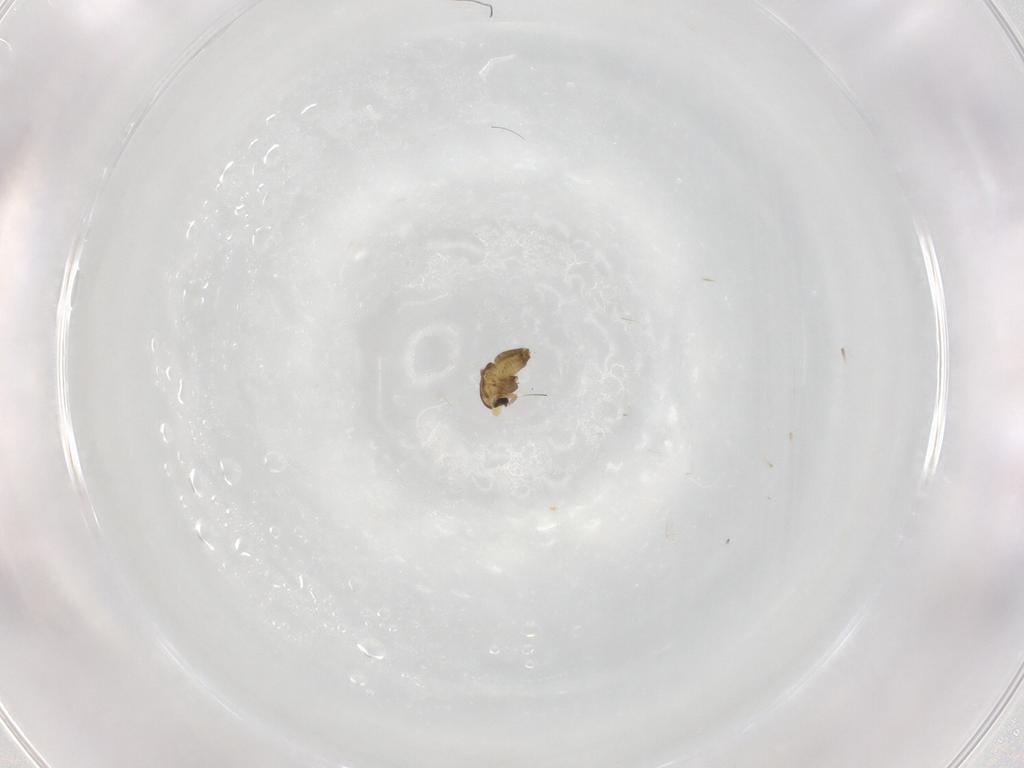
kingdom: Animalia
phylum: Arthropoda
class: Insecta
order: Diptera
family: Chironomidae
